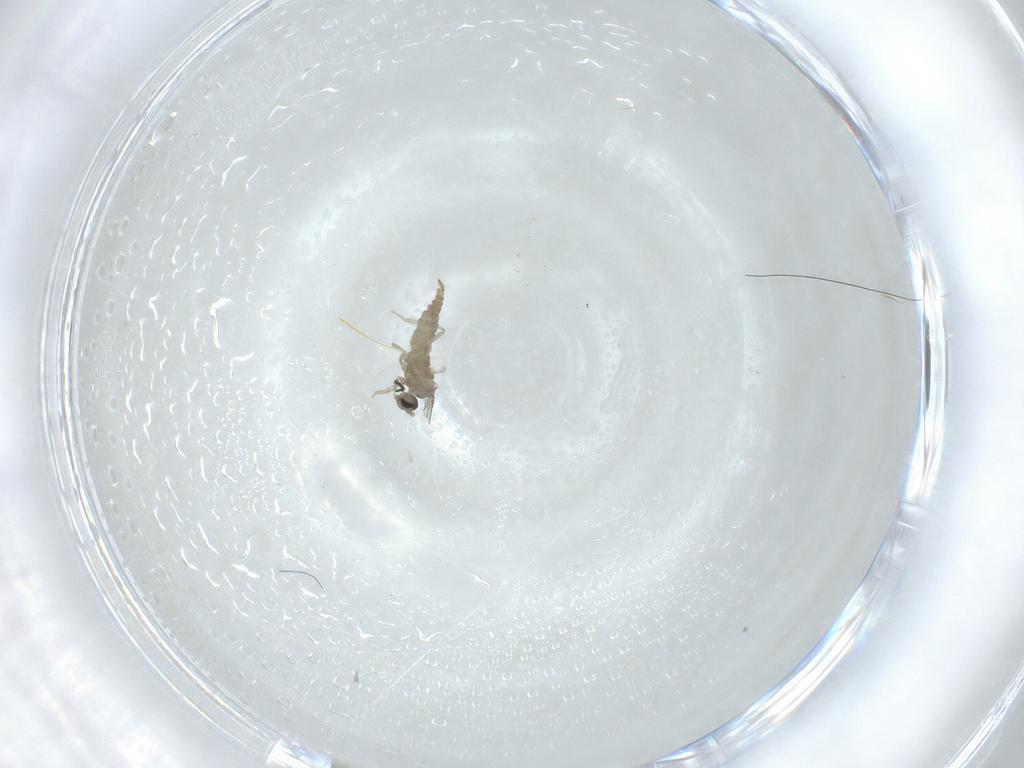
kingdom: Animalia
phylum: Arthropoda
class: Insecta
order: Diptera
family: Cecidomyiidae
